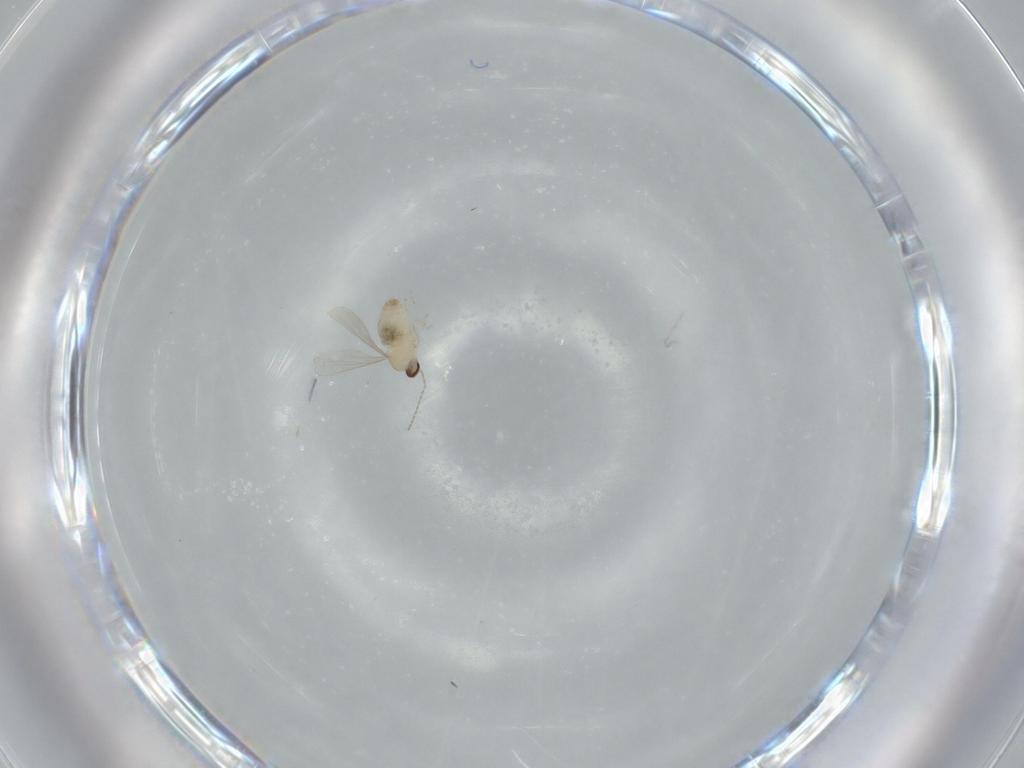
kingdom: Animalia
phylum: Arthropoda
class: Insecta
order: Diptera
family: Cecidomyiidae
